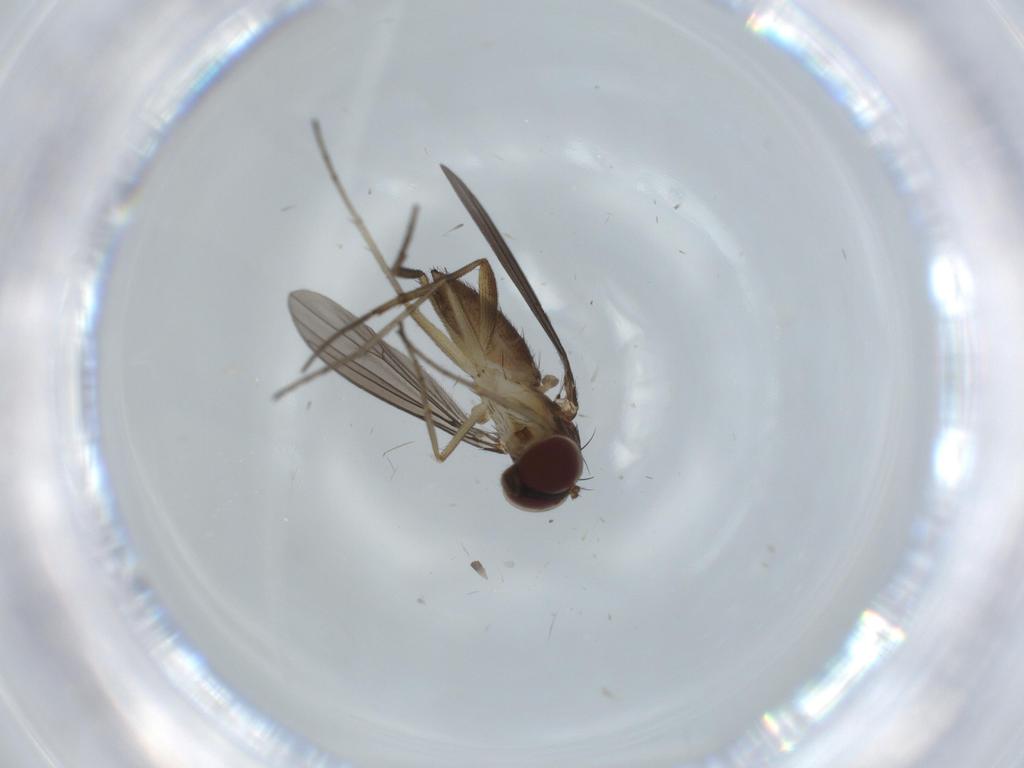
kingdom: Animalia
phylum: Arthropoda
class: Insecta
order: Diptera
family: Dolichopodidae
